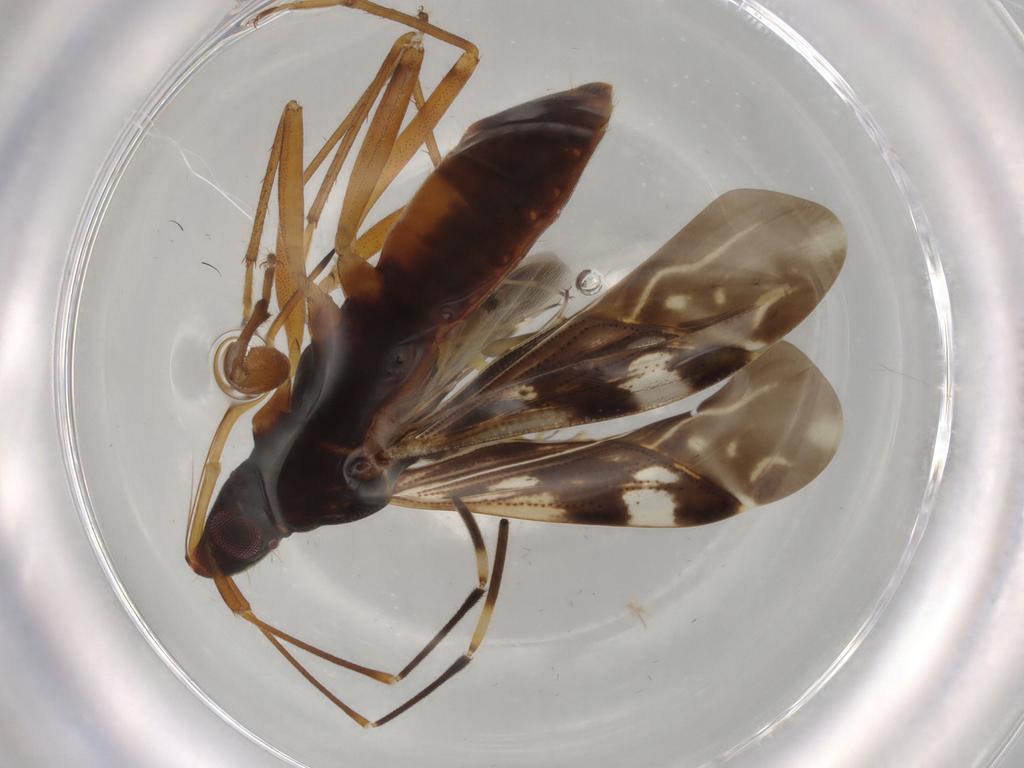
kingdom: Animalia
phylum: Arthropoda
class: Insecta
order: Hemiptera
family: Rhyparochromidae
